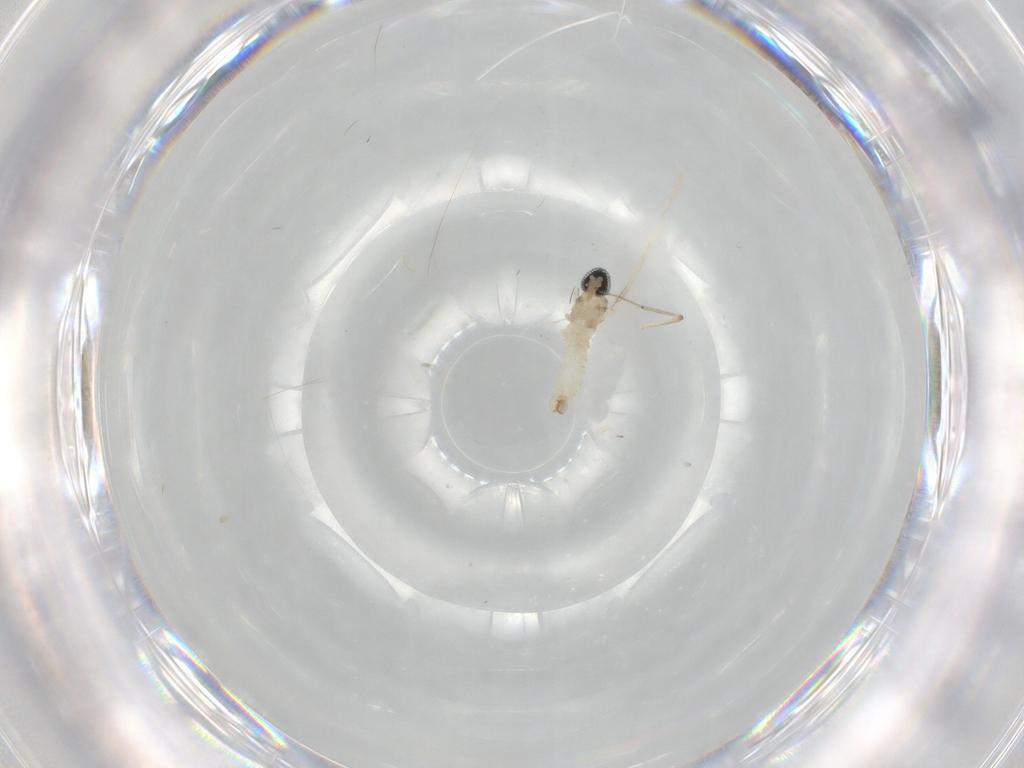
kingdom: Animalia
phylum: Arthropoda
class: Insecta
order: Diptera
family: Cecidomyiidae
